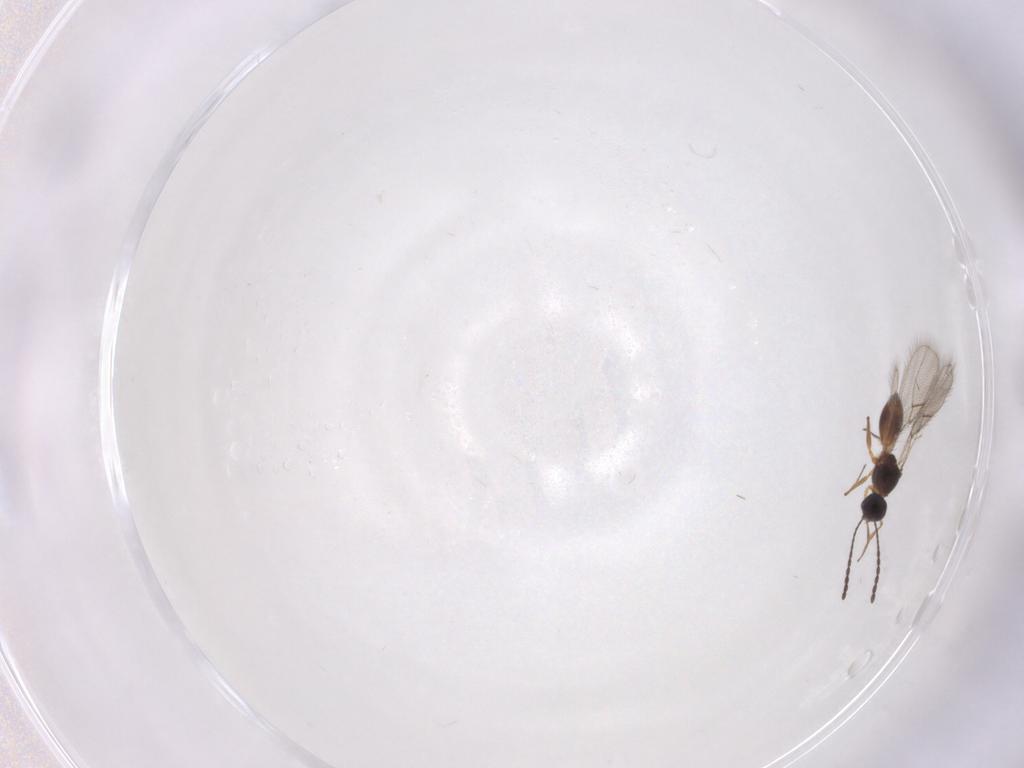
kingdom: Animalia
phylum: Arthropoda
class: Insecta
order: Hymenoptera
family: Figitidae
